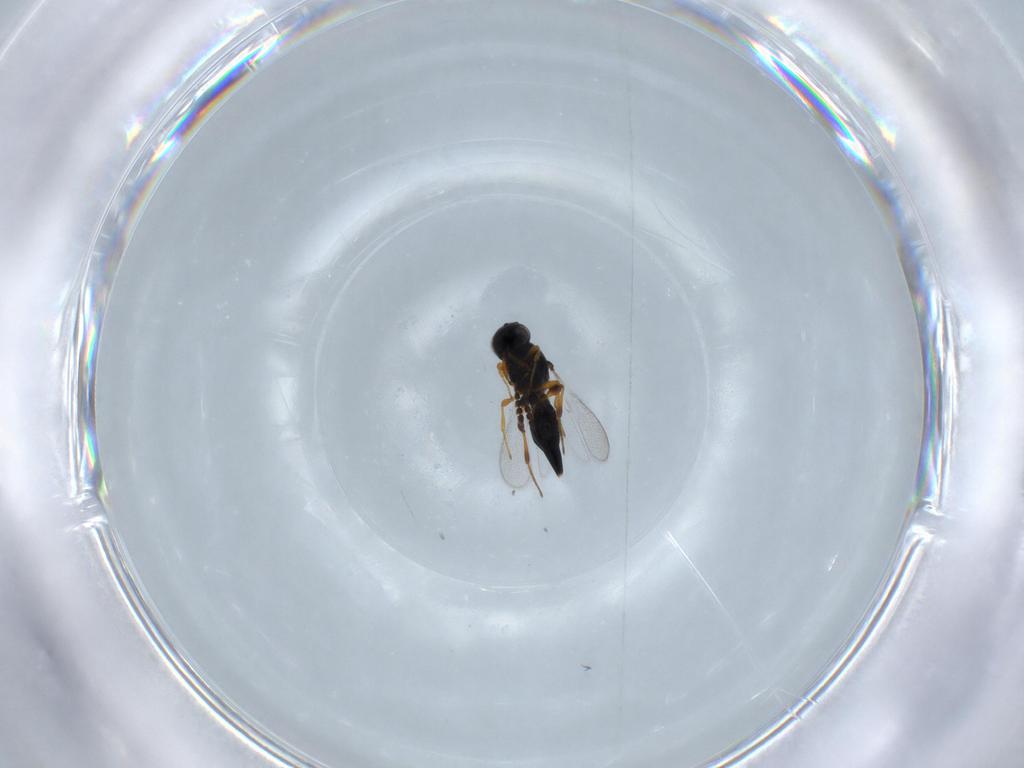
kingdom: Animalia
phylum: Arthropoda
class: Insecta
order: Hymenoptera
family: Platygastridae
